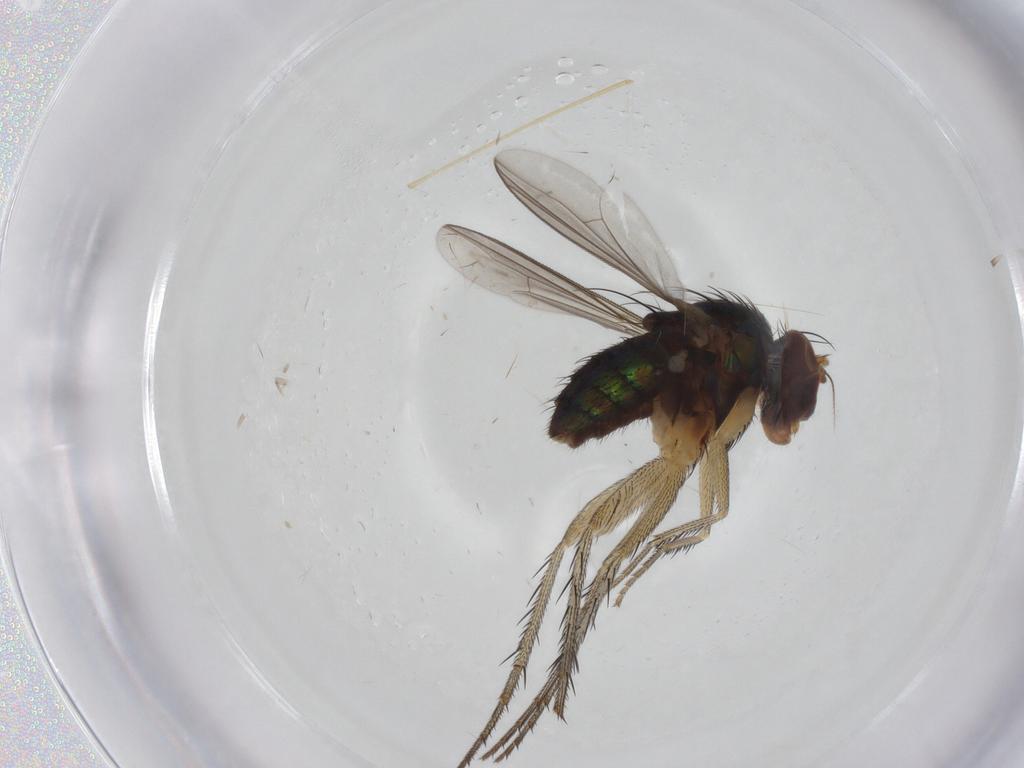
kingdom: Animalia
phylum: Arthropoda
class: Insecta
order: Diptera
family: Dolichopodidae
